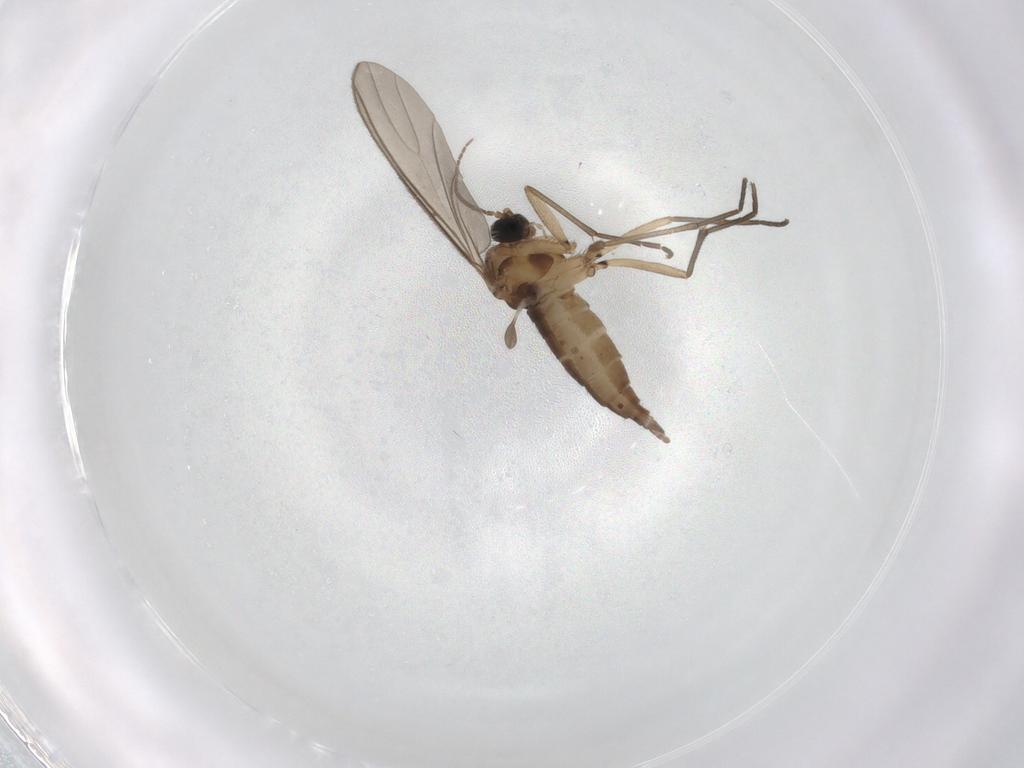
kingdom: Animalia
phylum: Arthropoda
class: Insecta
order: Diptera
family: Sciaridae
